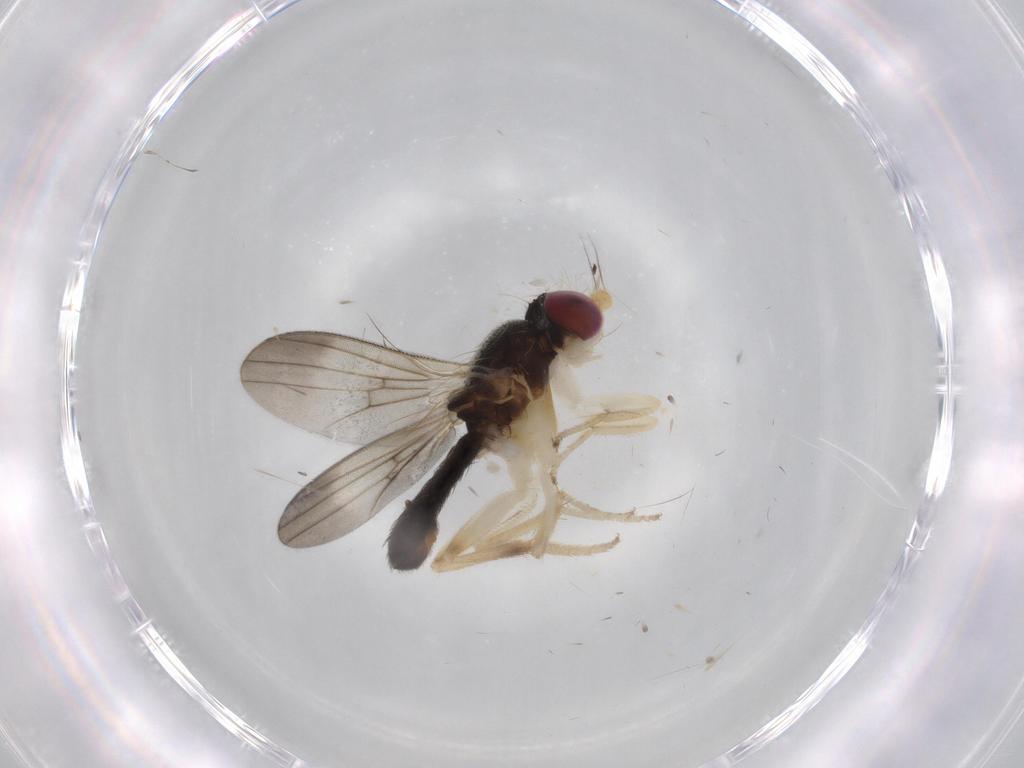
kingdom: Animalia
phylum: Arthropoda
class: Insecta
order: Diptera
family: Clusiidae
